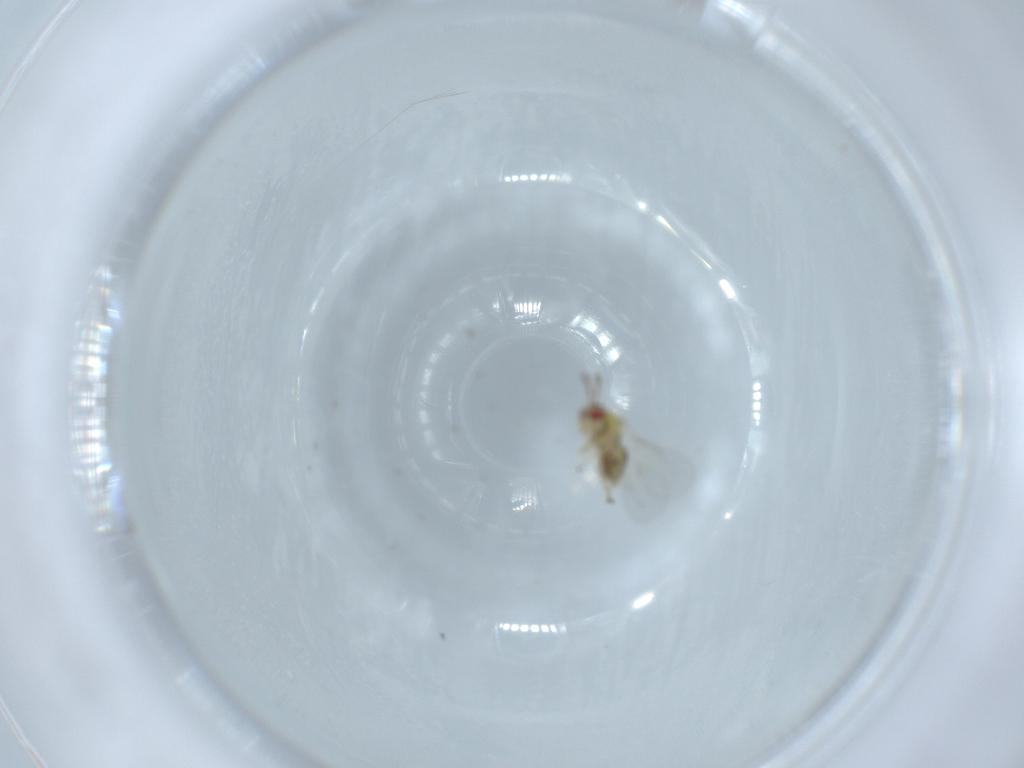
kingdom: Animalia
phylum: Arthropoda
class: Insecta
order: Hymenoptera
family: Eulophidae
